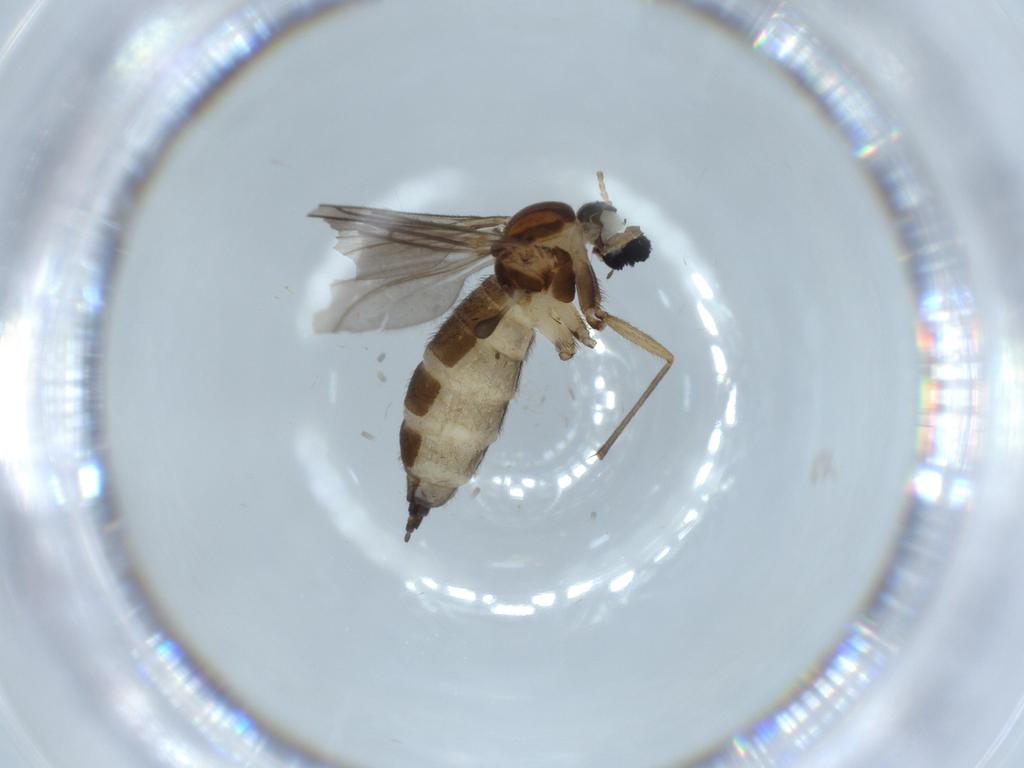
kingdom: Animalia
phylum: Arthropoda
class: Insecta
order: Diptera
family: Sciaridae
